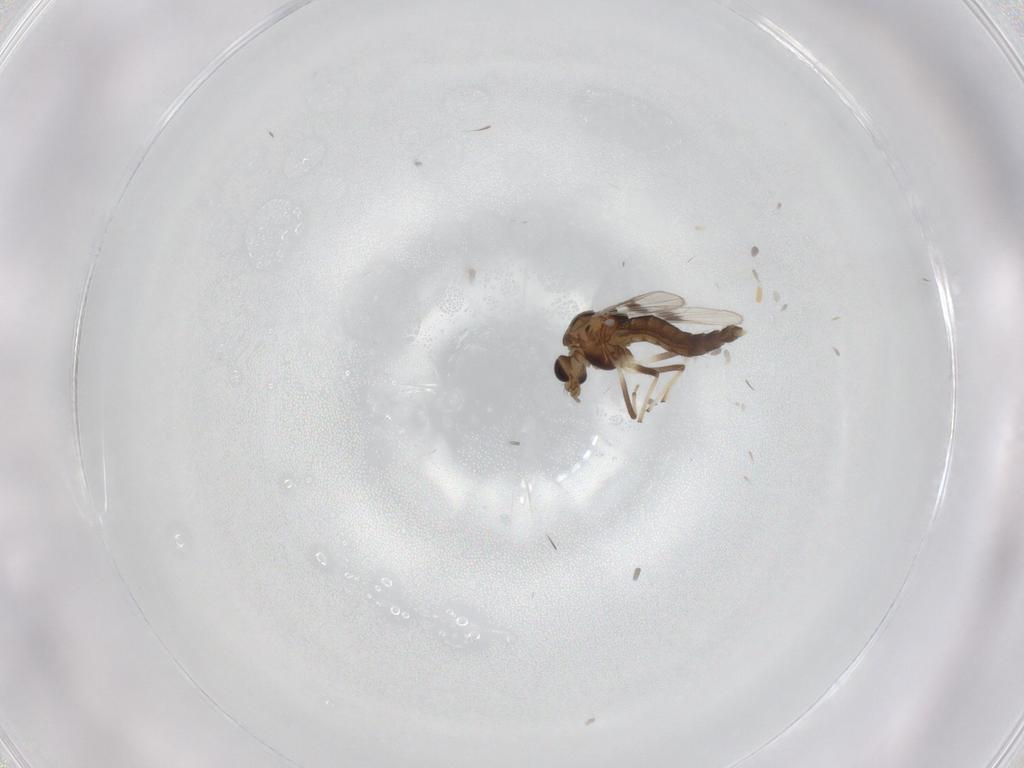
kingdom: Animalia
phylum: Arthropoda
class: Insecta
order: Diptera
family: Chironomidae
